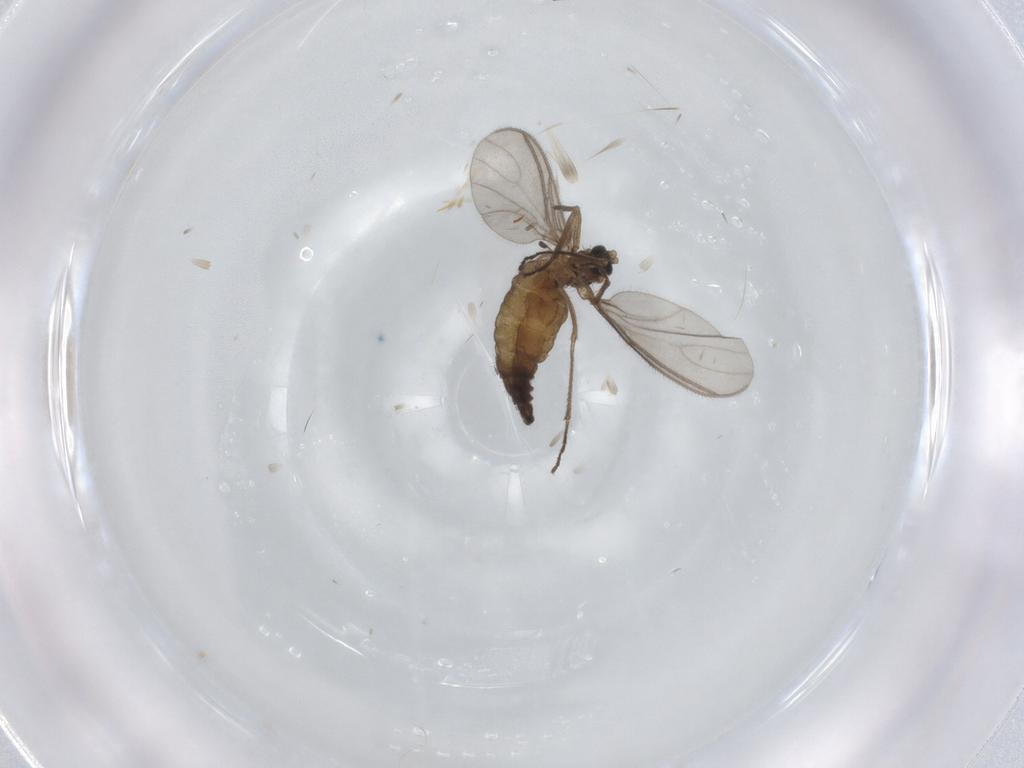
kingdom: Animalia
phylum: Arthropoda
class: Insecta
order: Diptera
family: Sciaridae
